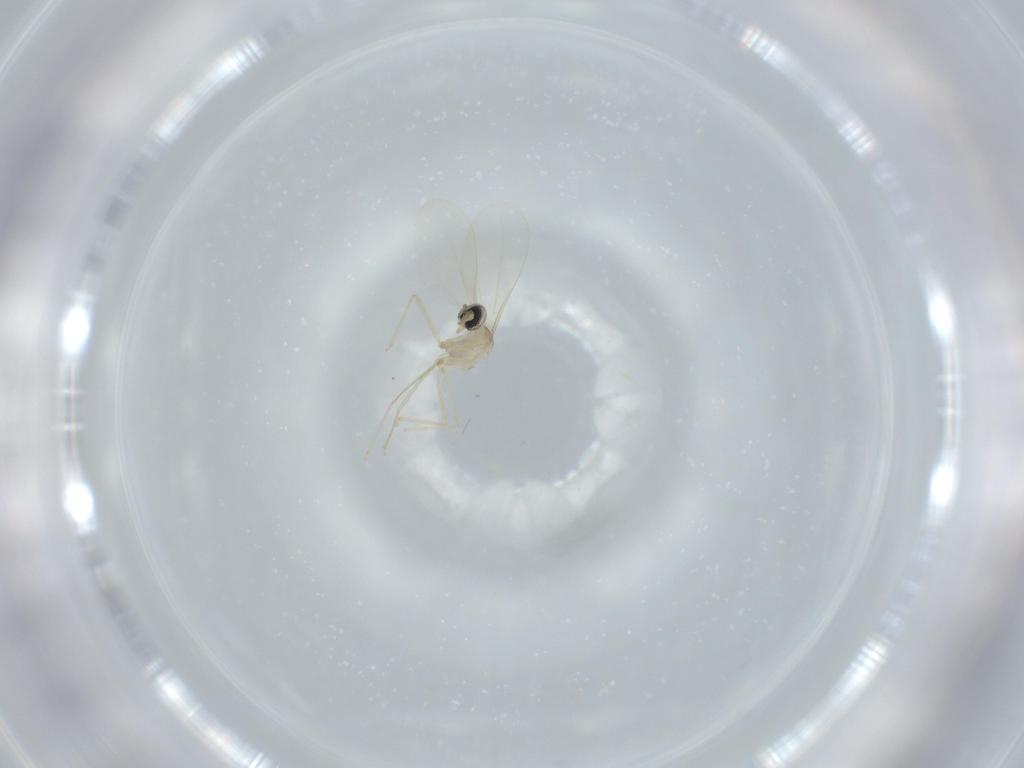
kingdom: Animalia
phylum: Arthropoda
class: Insecta
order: Diptera
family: Cecidomyiidae
